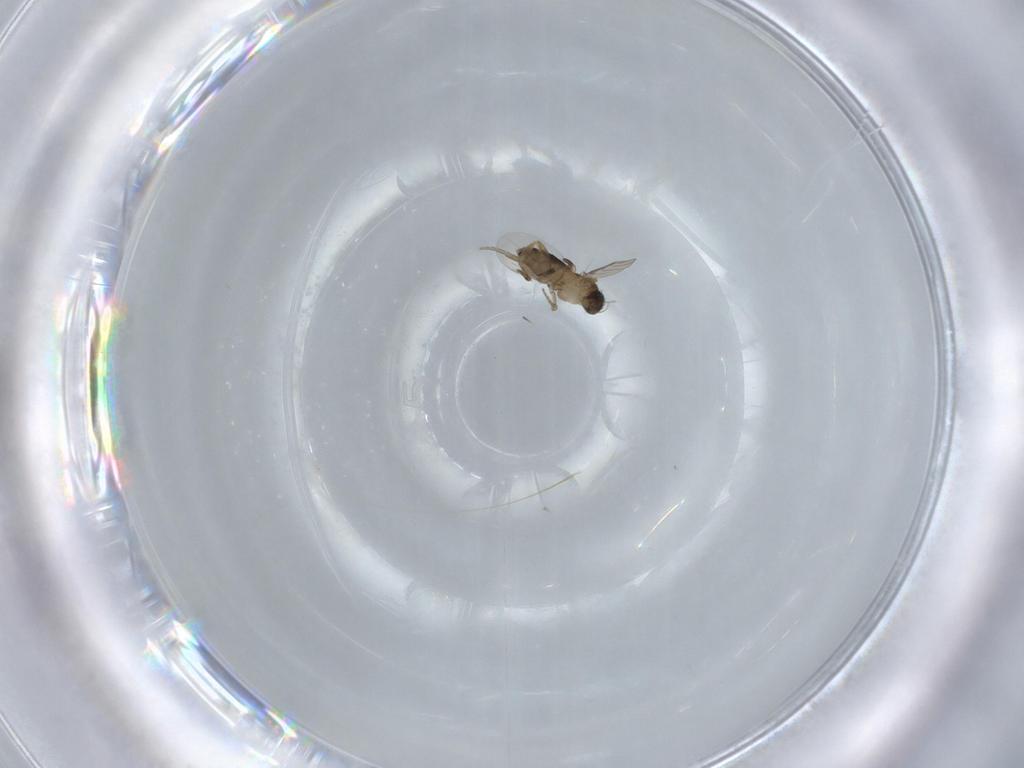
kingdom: Animalia
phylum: Arthropoda
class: Insecta
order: Diptera
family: Phoridae
